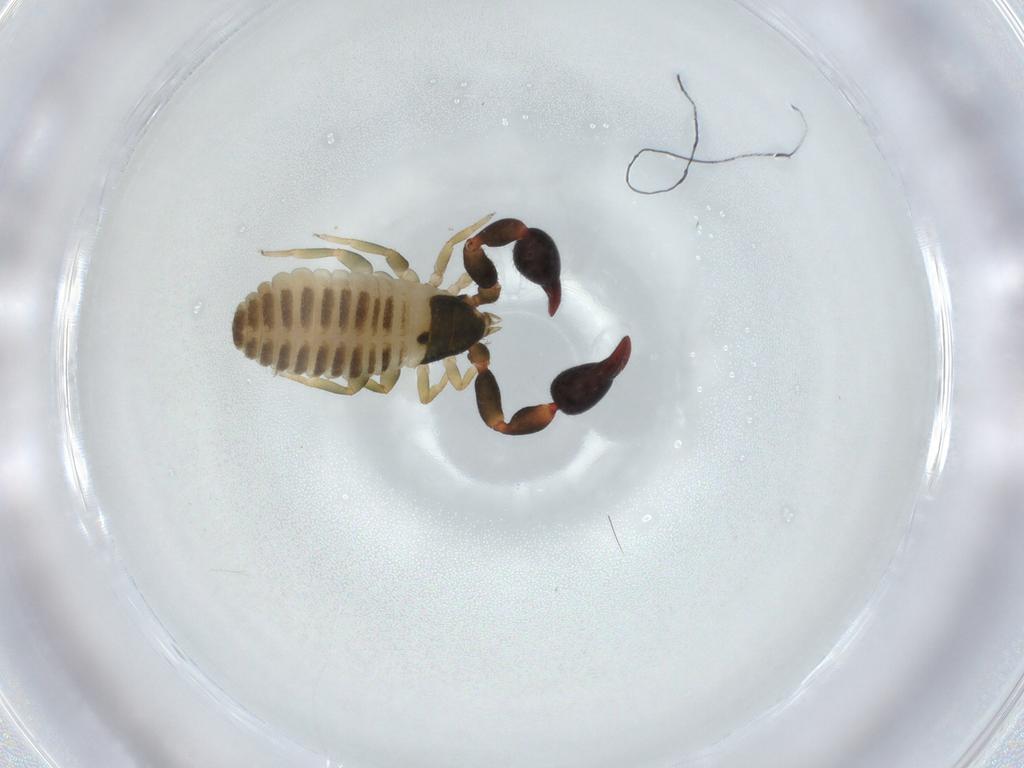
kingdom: Animalia
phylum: Arthropoda
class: Arachnida
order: Pseudoscorpiones
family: Chernetidae
